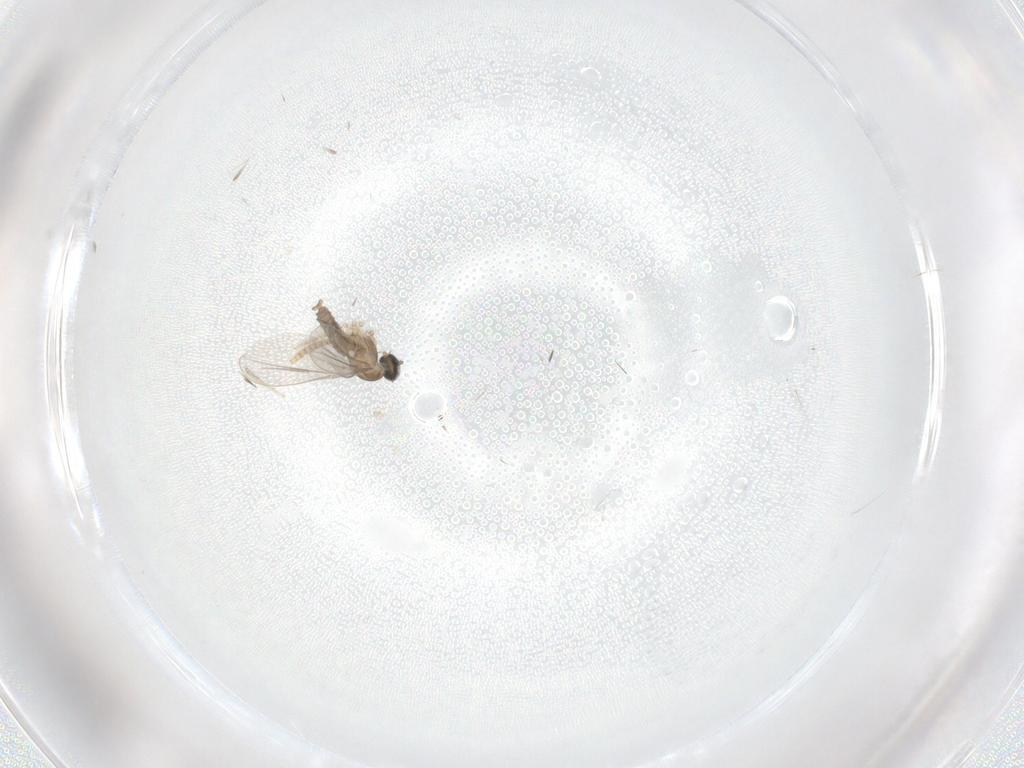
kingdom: Animalia
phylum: Arthropoda
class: Insecta
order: Diptera
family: Cecidomyiidae
